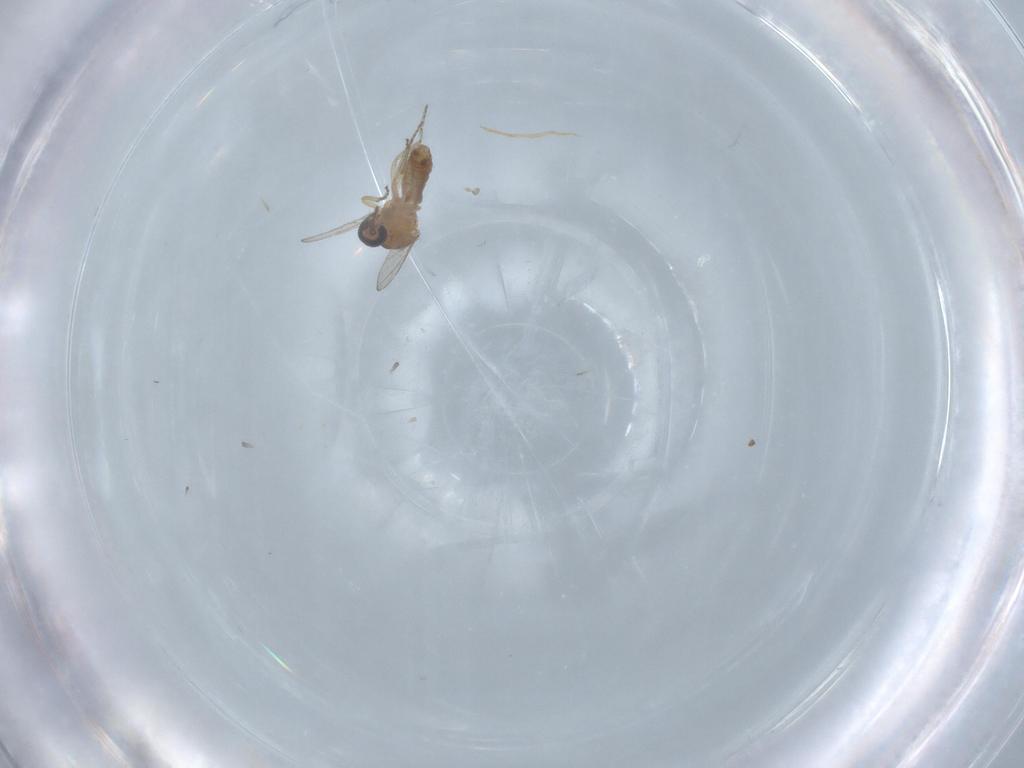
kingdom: Animalia
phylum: Arthropoda
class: Insecta
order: Diptera
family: Ceratopogonidae
